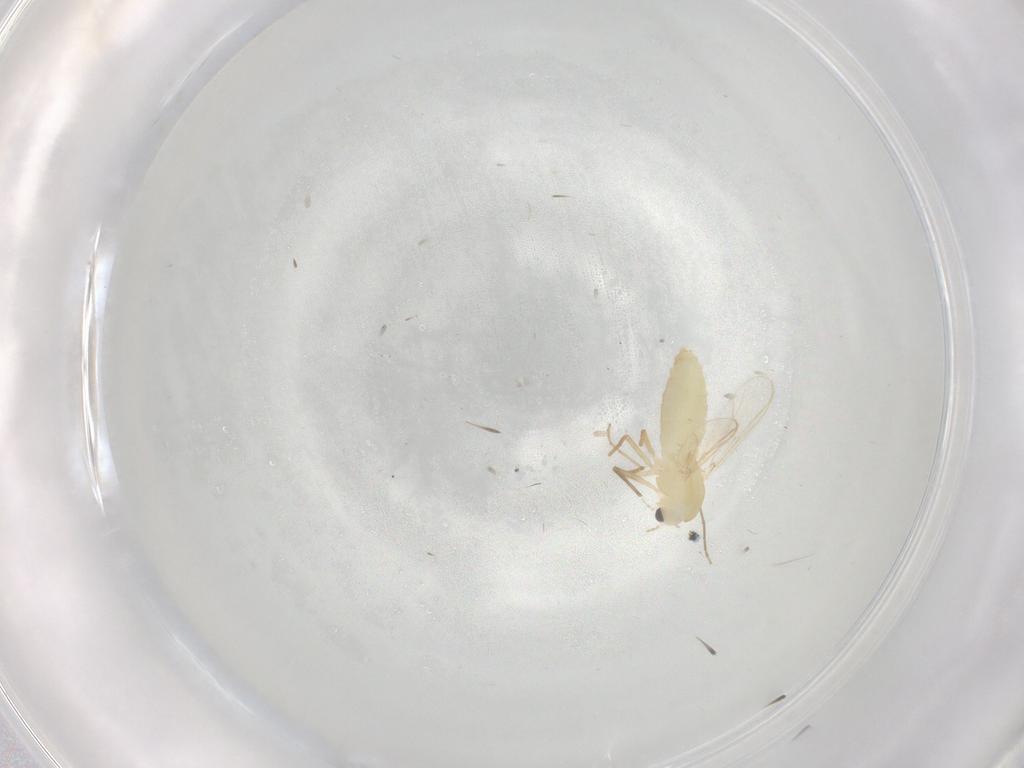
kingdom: Animalia
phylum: Arthropoda
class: Insecta
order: Diptera
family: Chironomidae
